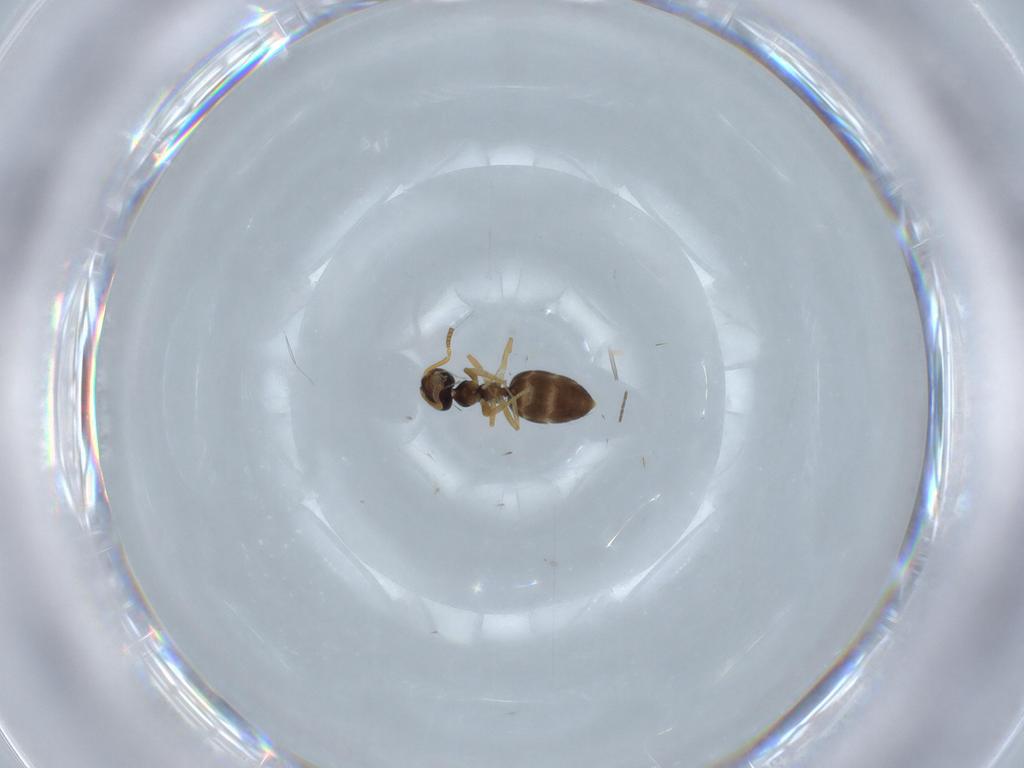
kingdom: Animalia
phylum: Arthropoda
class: Insecta
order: Hymenoptera
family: Formicidae
